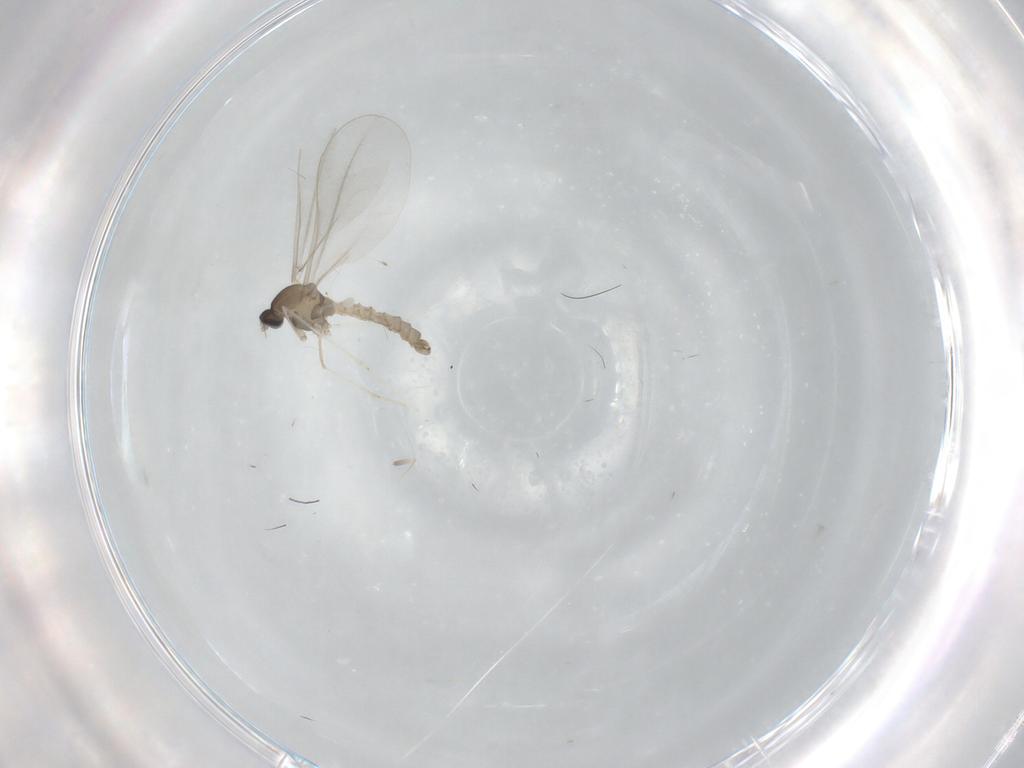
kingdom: Animalia
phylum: Arthropoda
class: Insecta
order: Diptera
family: Cecidomyiidae
